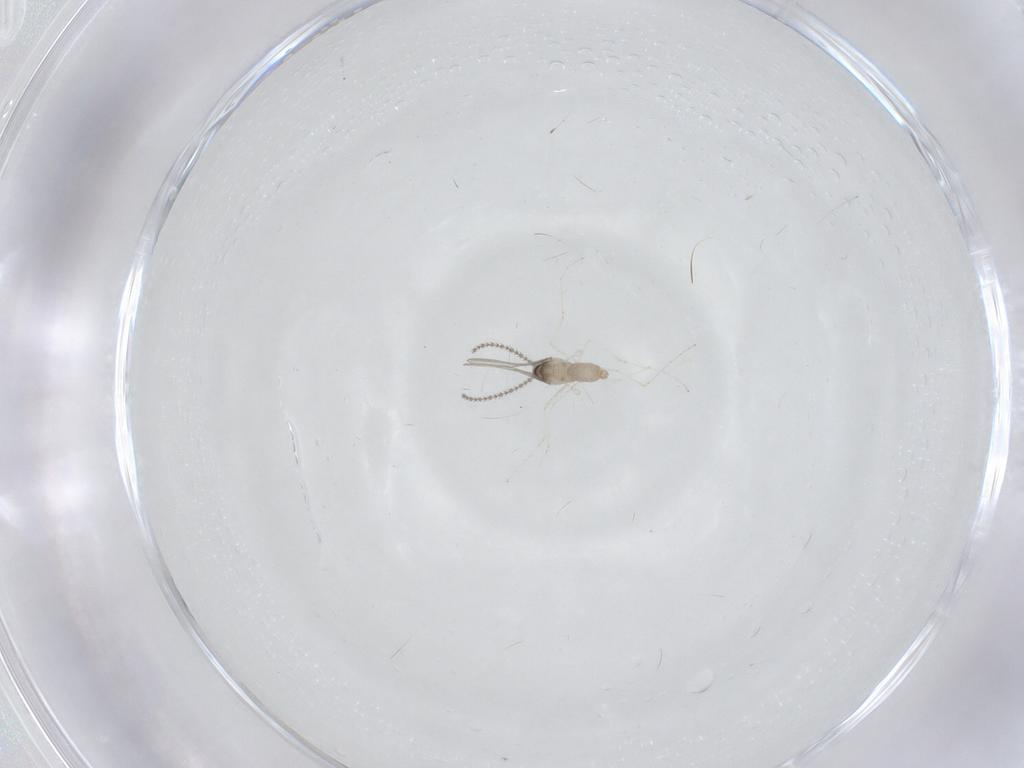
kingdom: Animalia
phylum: Arthropoda
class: Insecta
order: Diptera
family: Cecidomyiidae
